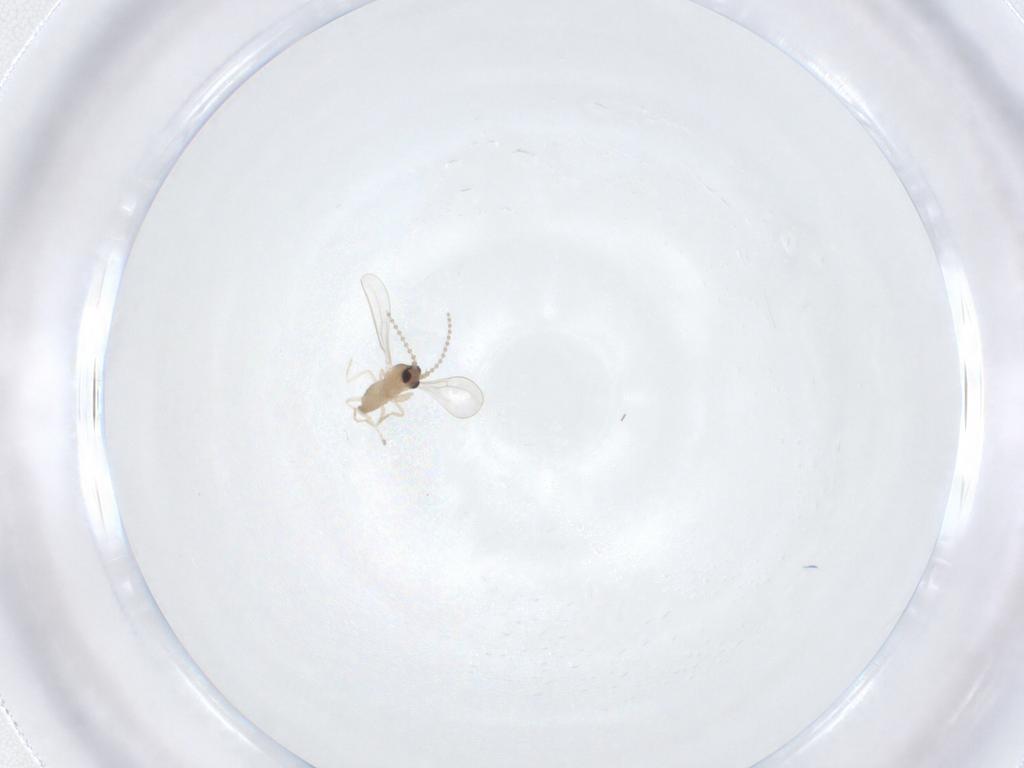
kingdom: Animalia
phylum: Arthropoda
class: Insecta
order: Diptera
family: Cecidomyiidae
